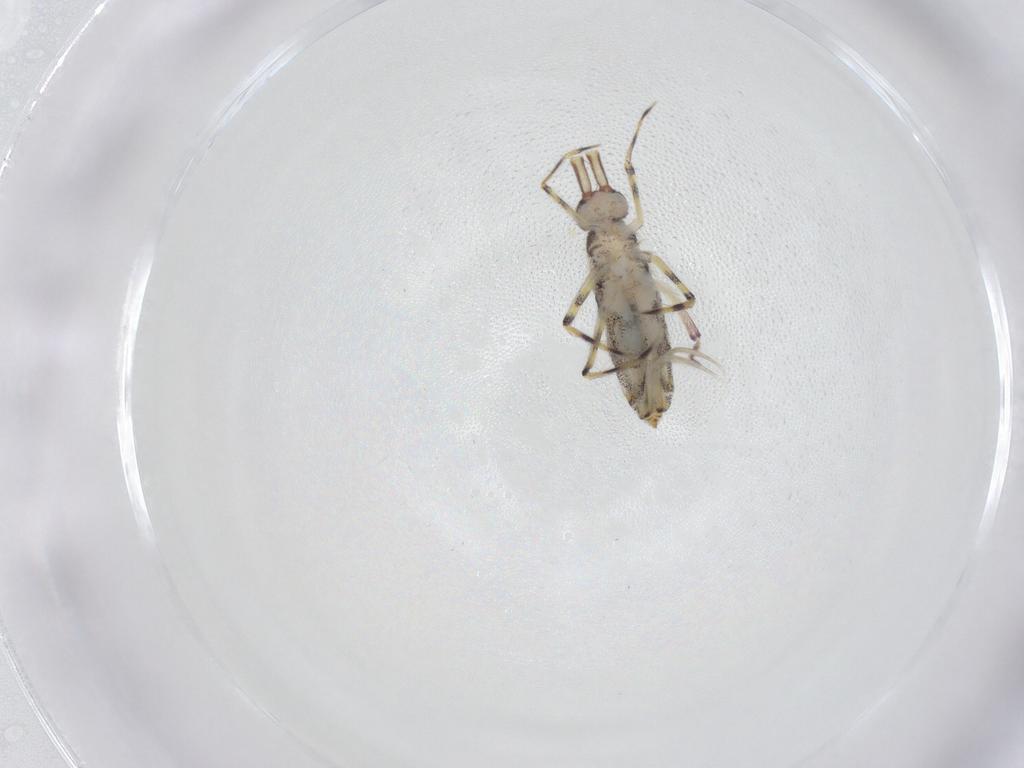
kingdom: Animalia
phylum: Arthropoda
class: Collembola
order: Entomobryomorpha
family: Entomobryidae
